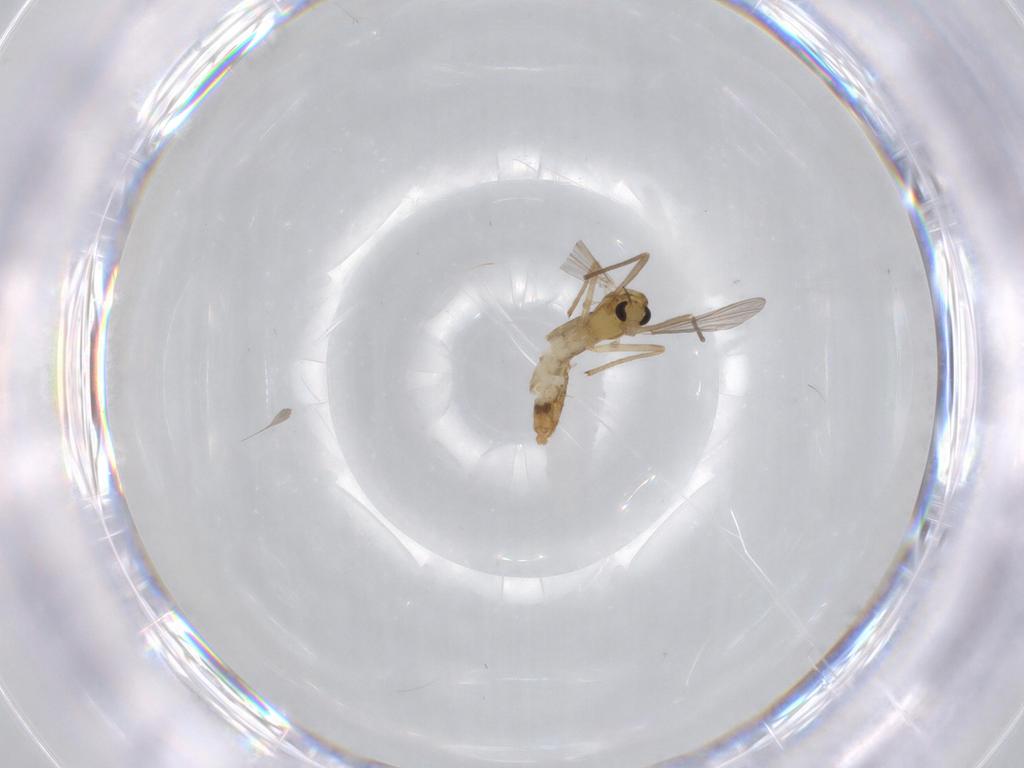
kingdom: Animalia
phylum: Arthropoda
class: Insecta
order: Diptera
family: Chironomidae
